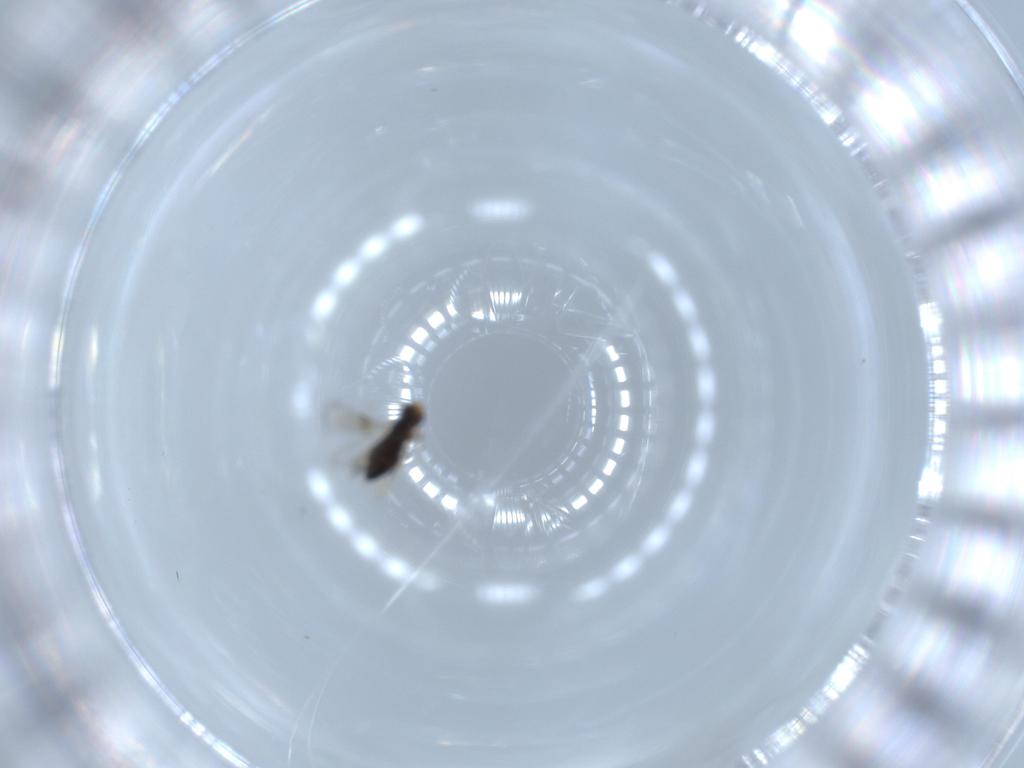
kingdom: Animalia
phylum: Arthropoda
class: Insecta
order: Hymenoptera
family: Signiphoridae
